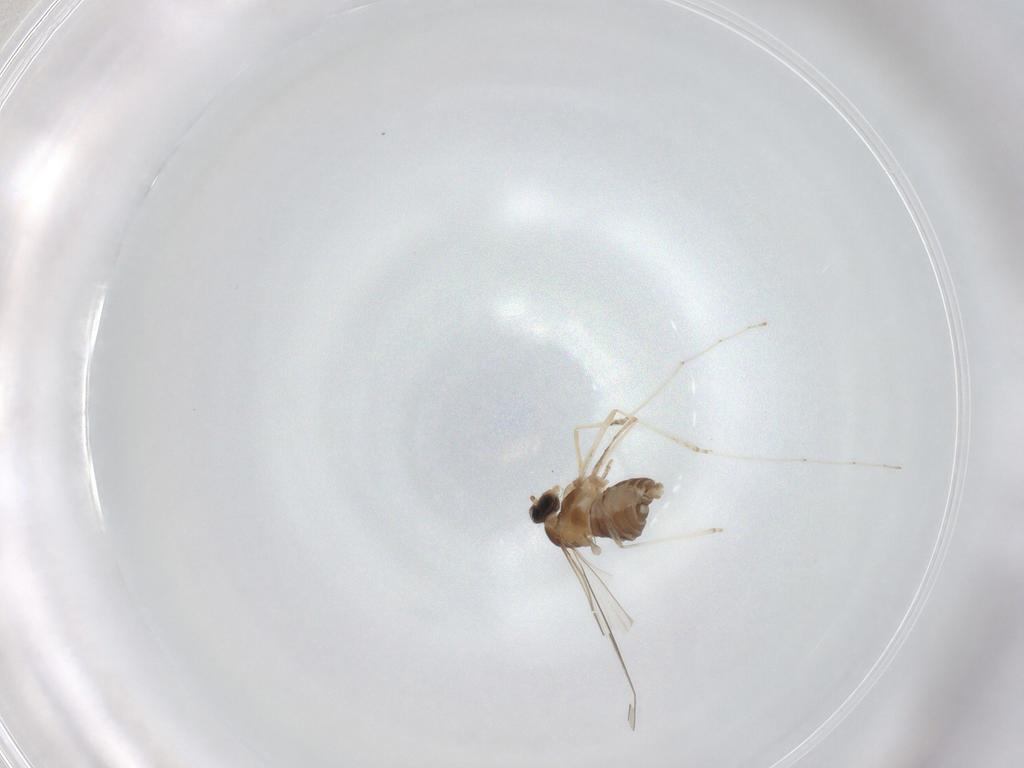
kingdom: Animalia
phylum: Arthropoda
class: Insecta
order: Diptera
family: Cecidomyiidae
